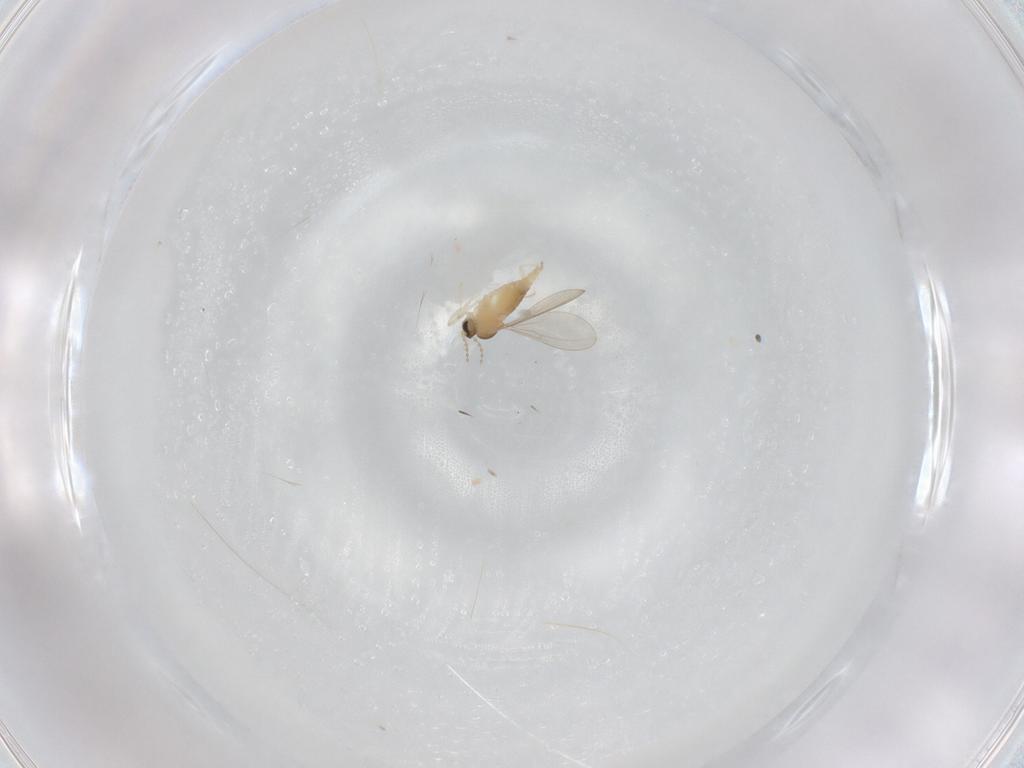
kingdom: Animalia
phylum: Arthropoda
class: Insecta
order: Diptera
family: Cecidomyiidae
